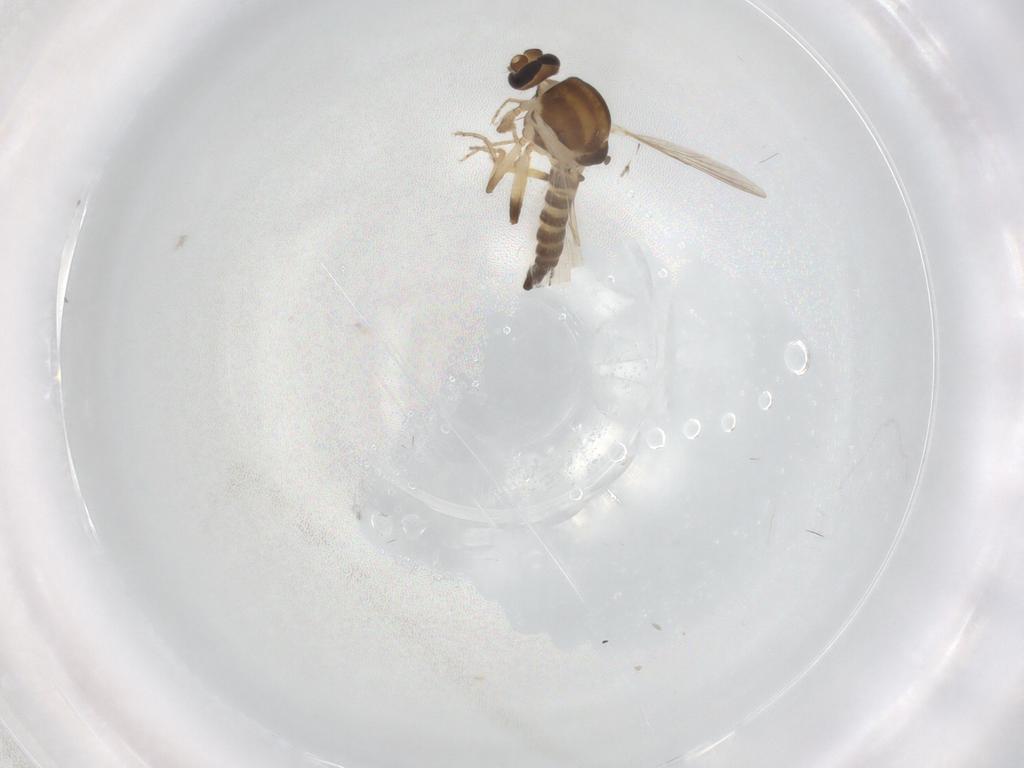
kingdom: Animalia
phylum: Arthropoda
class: Insecta
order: Diptera
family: Ceratopogonidae
